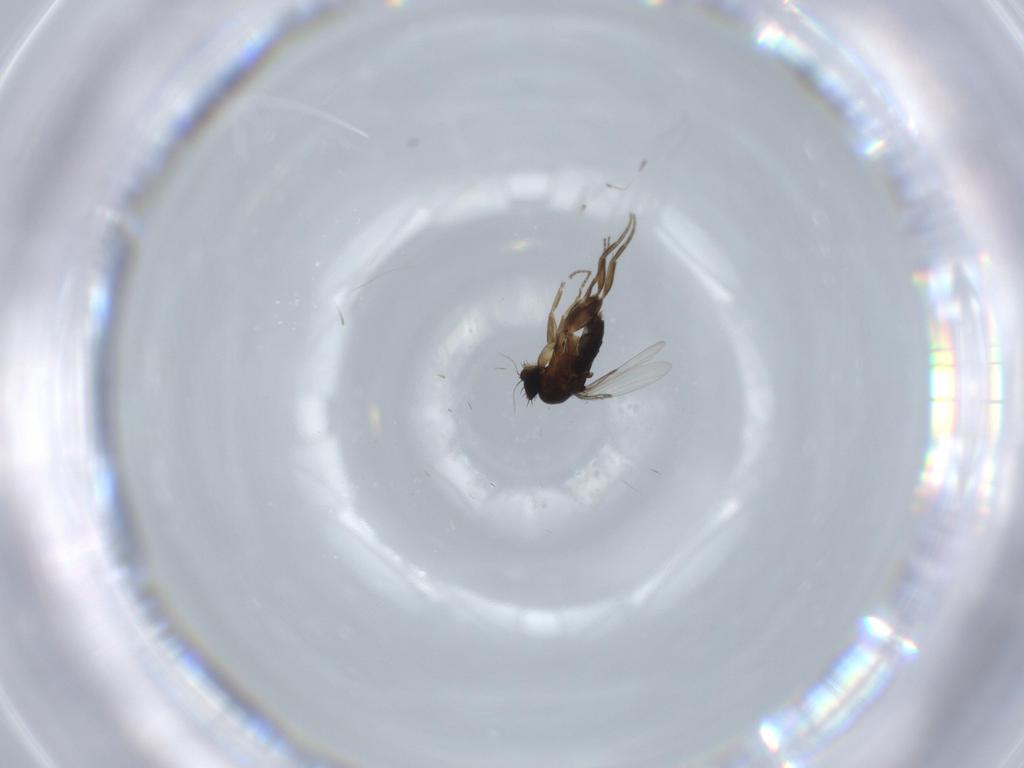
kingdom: Animalia
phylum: Arthropoda
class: Insecta
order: Diptera
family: Phoridae
